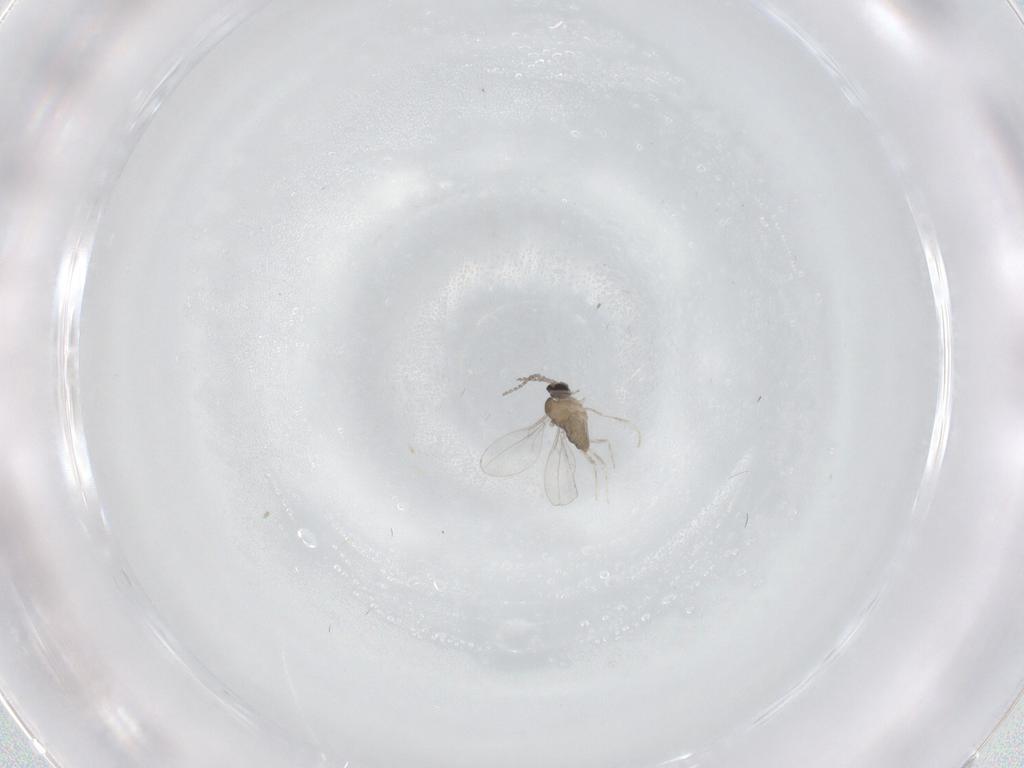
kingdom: Animalia
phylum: Arthropoda
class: Insecta
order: Diptera
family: Cecidomyiidae
